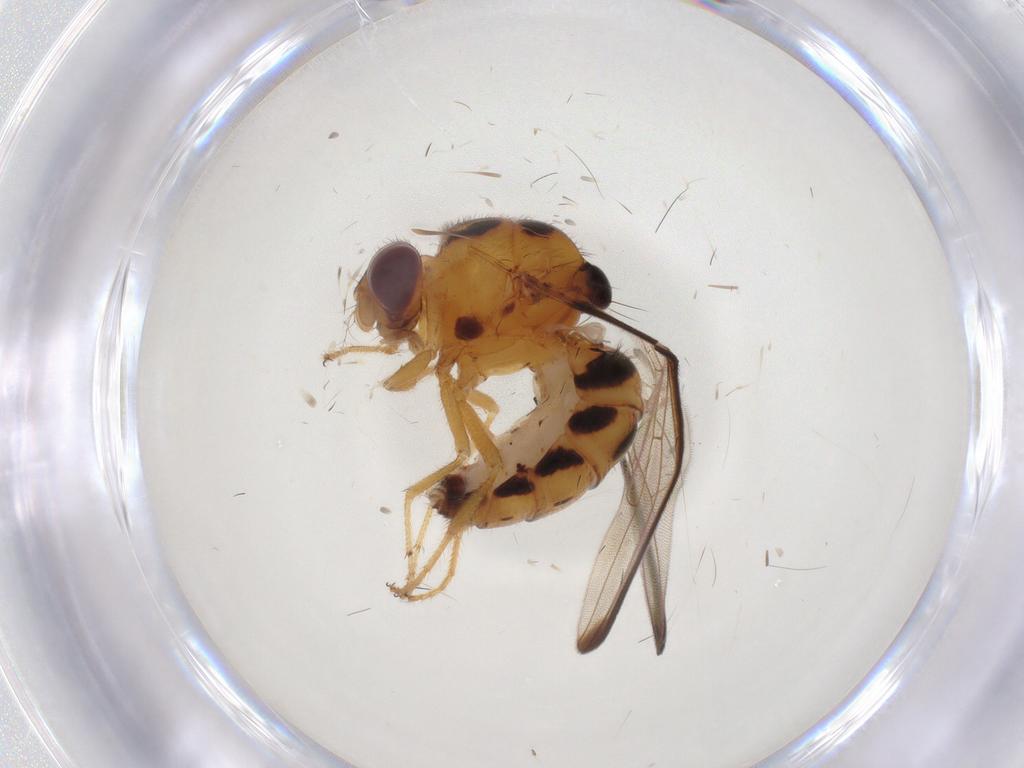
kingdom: Animalia
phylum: Arthropoda
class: Insecta
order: Diptera
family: Somatiidae
